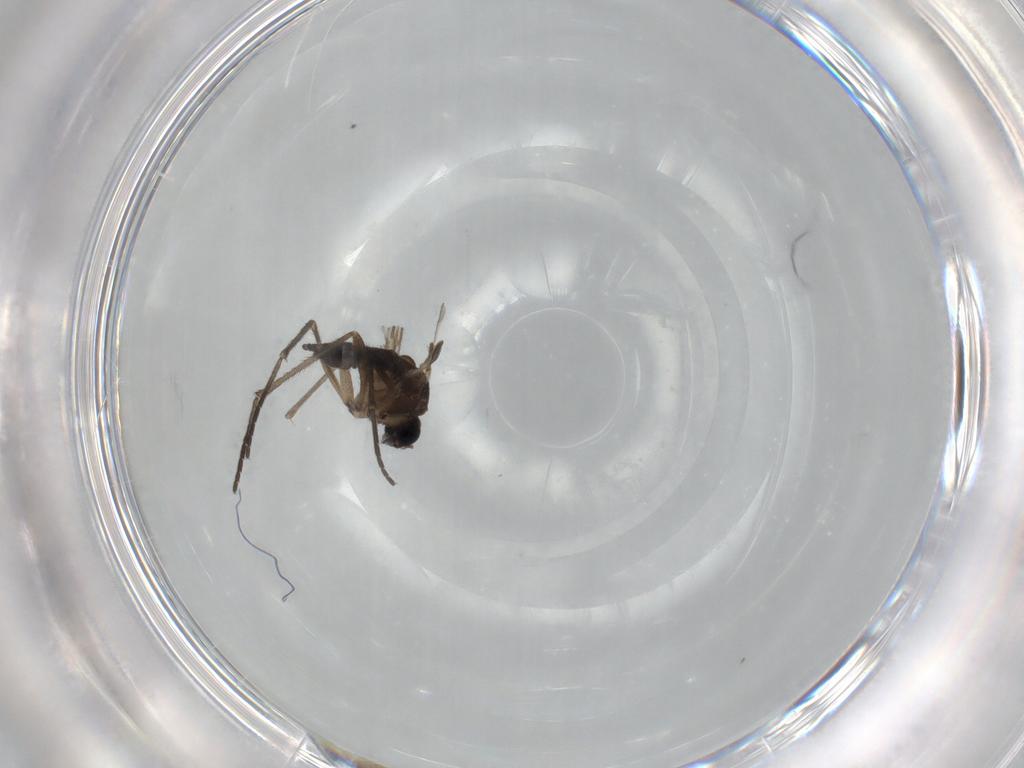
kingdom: Animalia
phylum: Arthropoda
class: Insecta
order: Diptera
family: Sciaridae
